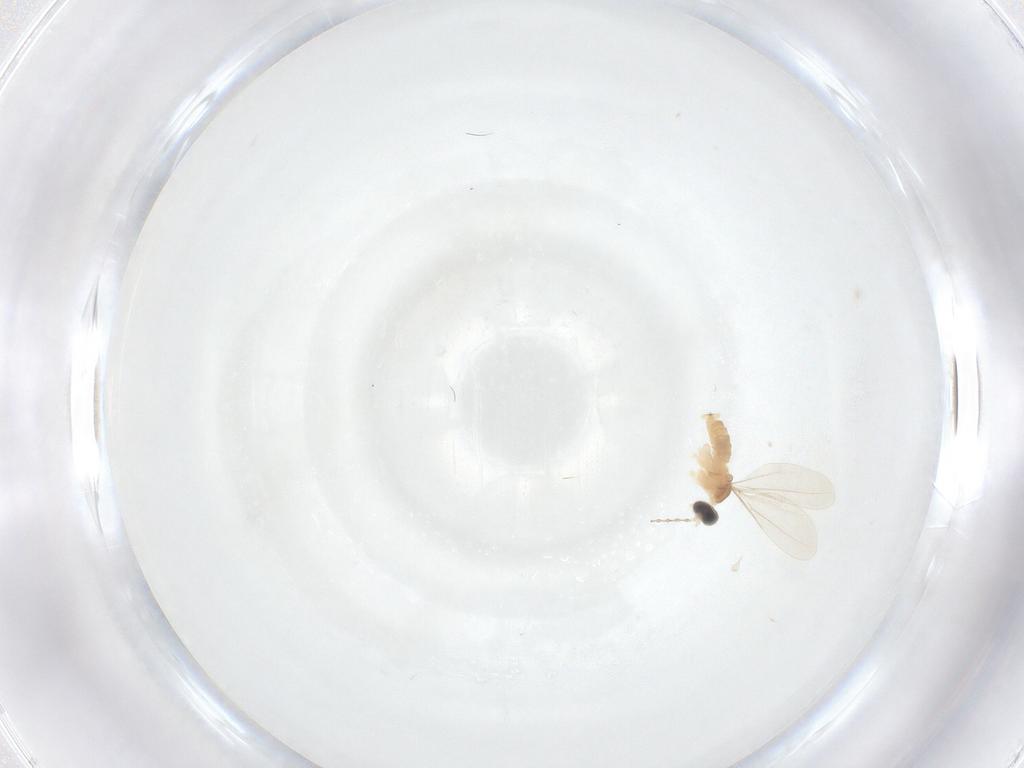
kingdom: Animalia
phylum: Arthropoda
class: Insecta
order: Diptera
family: Cecidomyiidae
